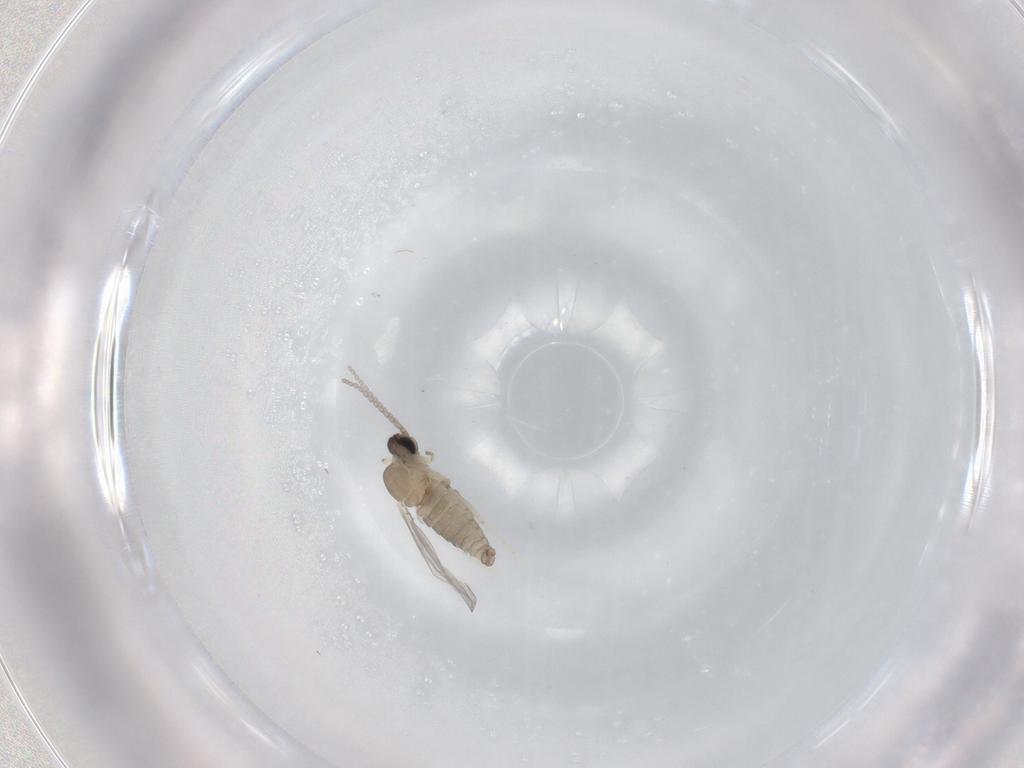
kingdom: Animalia
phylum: Arthropoda
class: Insecta
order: Diptera
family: Cecidomyiidae
